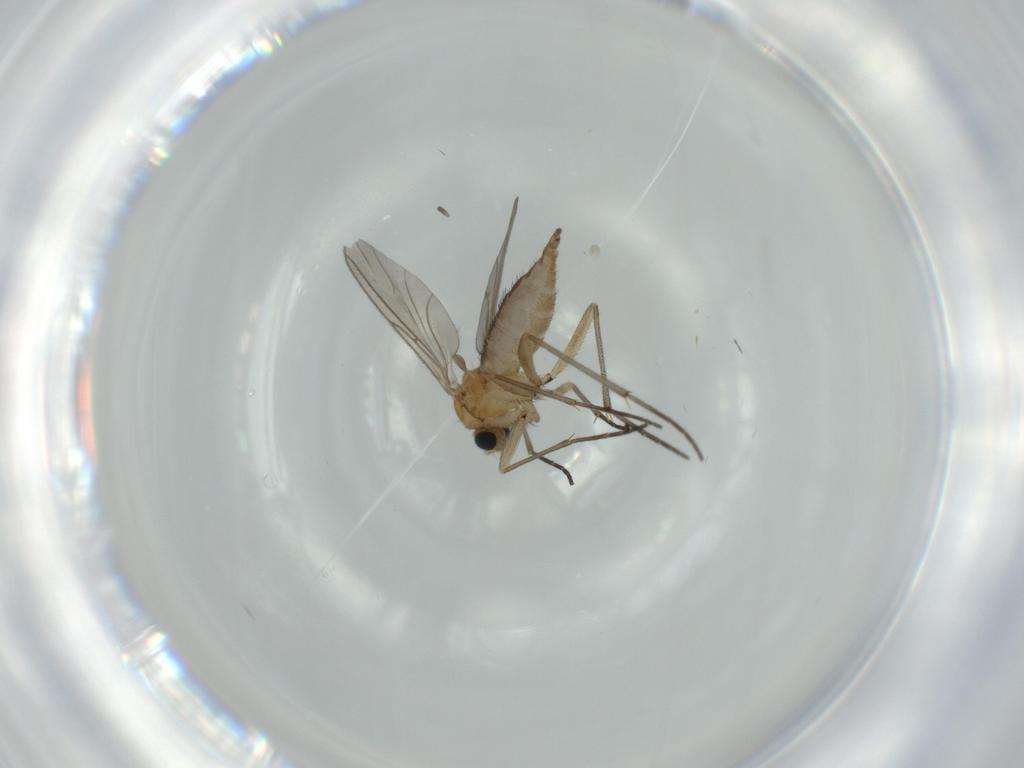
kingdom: Animalia
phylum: Arthropoda
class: Insecta
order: Diptera
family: Sciaridae
